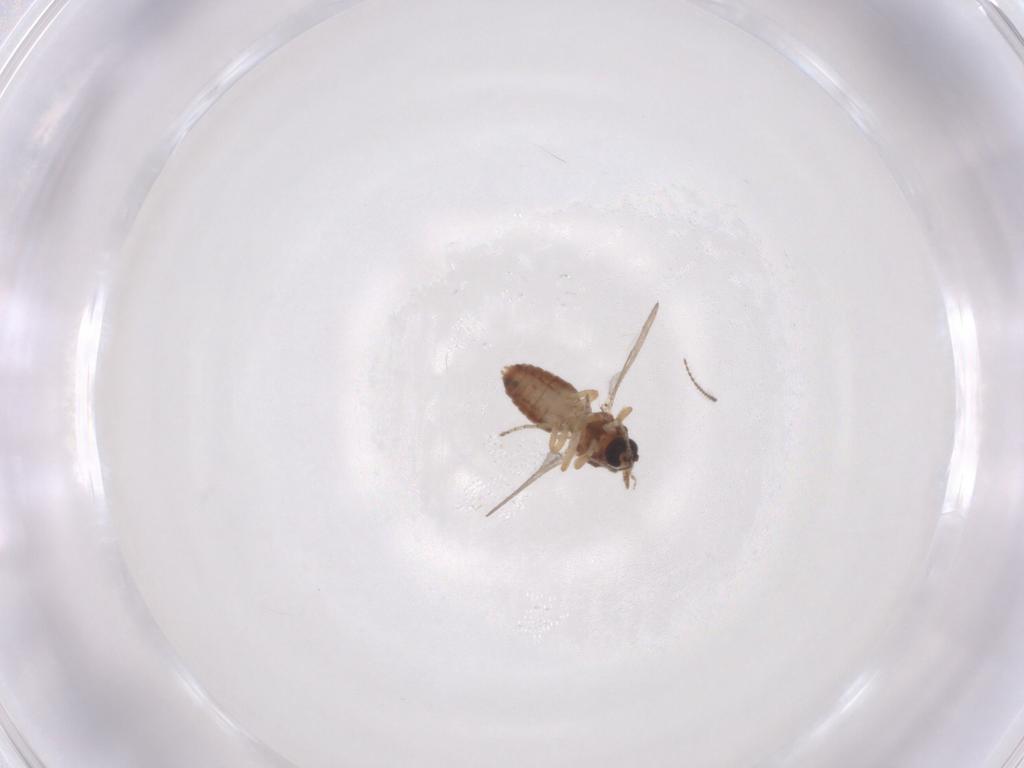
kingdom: Animalia
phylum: Arthropoda
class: Insecta
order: Diptera
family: Ceratopogonidae
